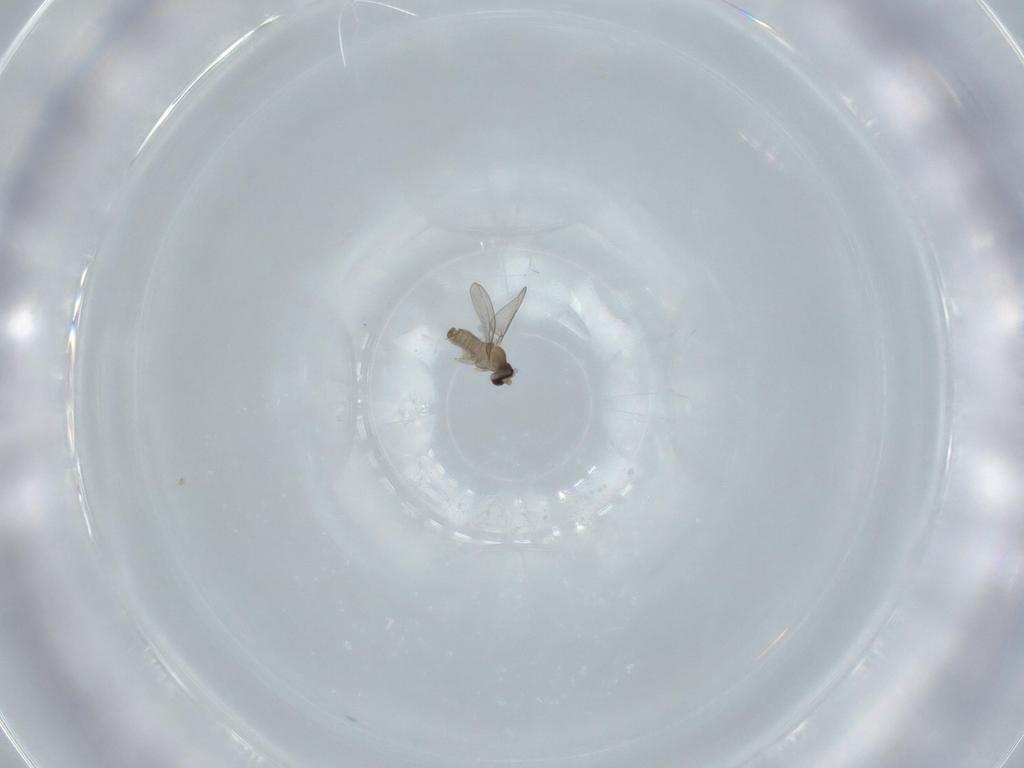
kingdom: Animalia
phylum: Arthropoda
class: Insecta
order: Diptera
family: Cecidomyiidae
